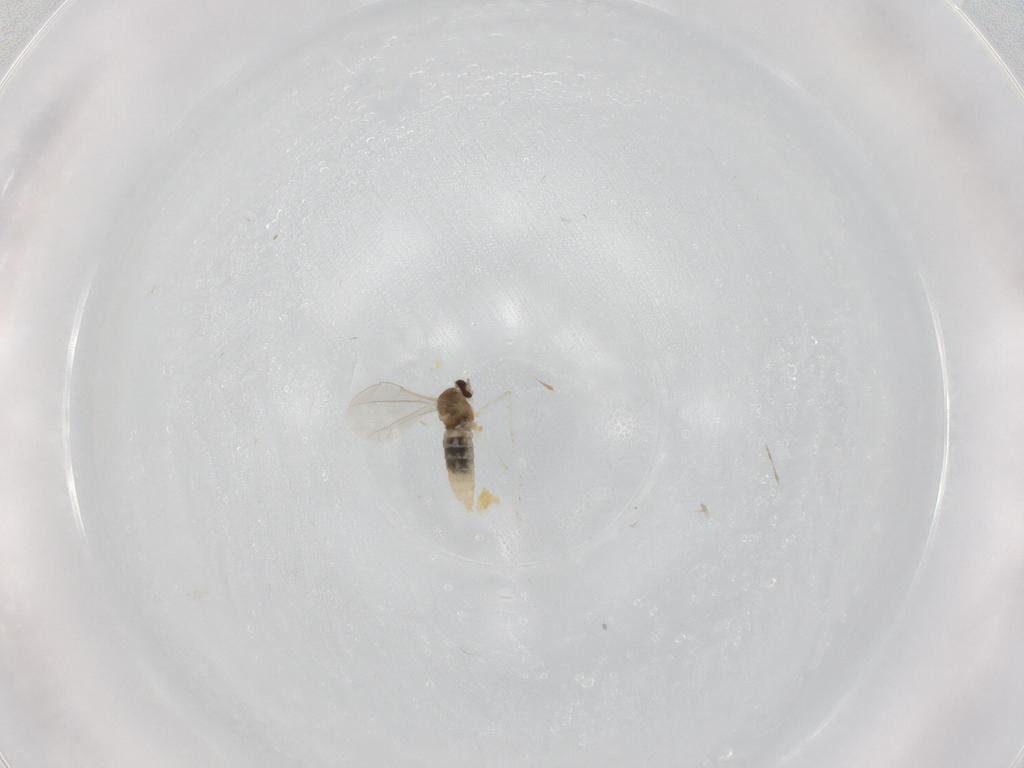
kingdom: Animalia
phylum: Arthropoda
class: Insecta
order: Diptera
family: Cecidomyiidae
